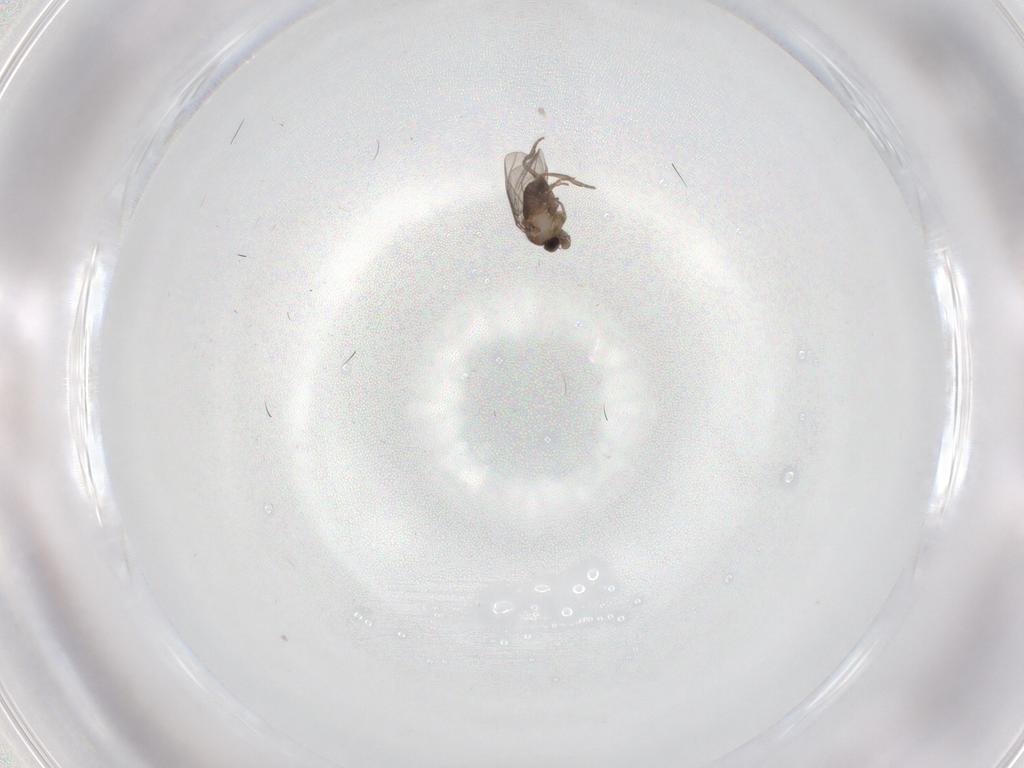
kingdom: Animalia
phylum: Arthropoda
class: Insecta
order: Diptera
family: Cecidomyiidae
